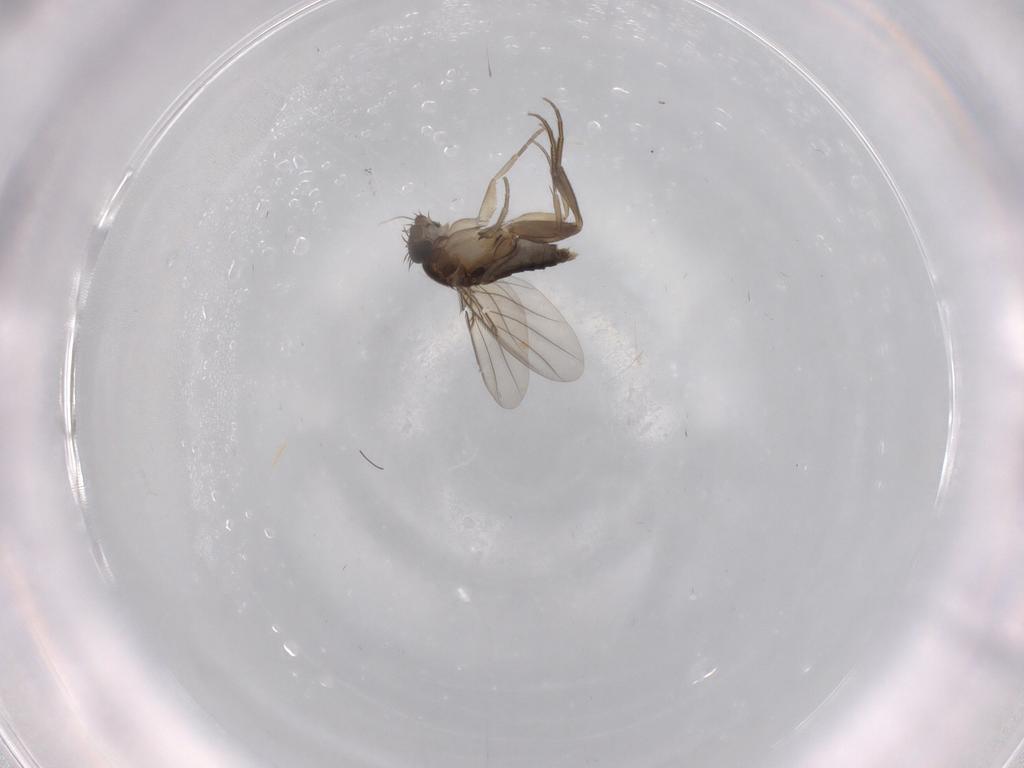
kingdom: Animalia
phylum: Arthropoda
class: Insecta
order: Diptera
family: Phoridae
